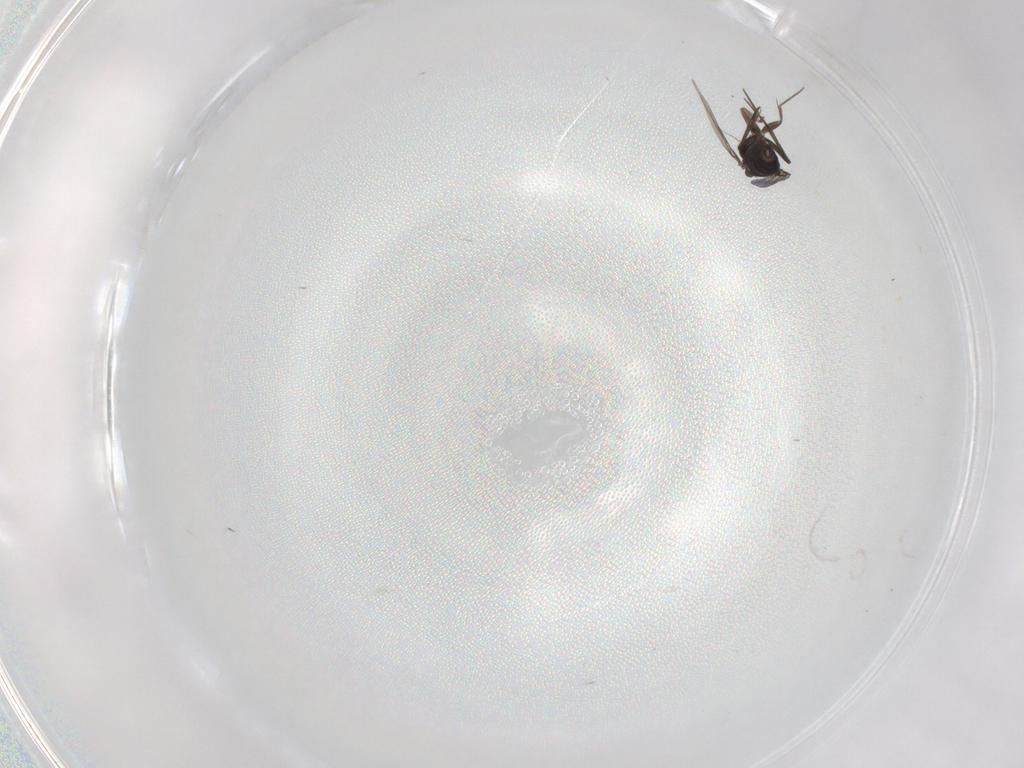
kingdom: Animalia
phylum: Arthropoda
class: Insecta
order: Diptera
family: Phoridae
